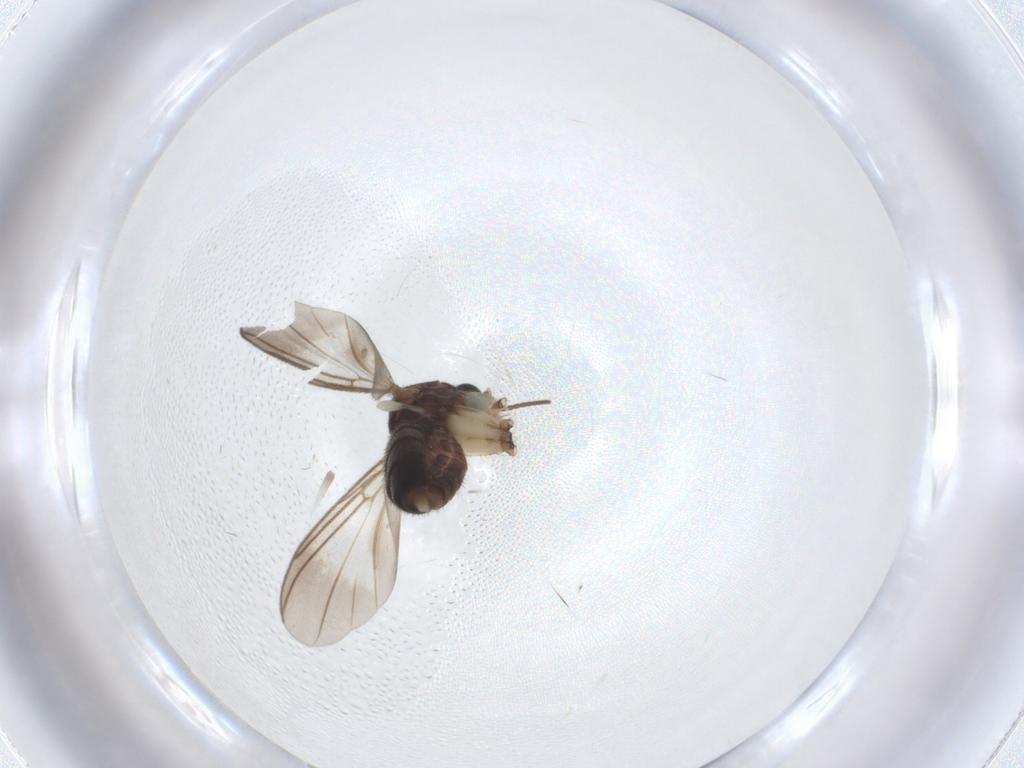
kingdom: Animalia
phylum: Arthropoda
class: Insecta
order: Diptera
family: Mycetophilidae
